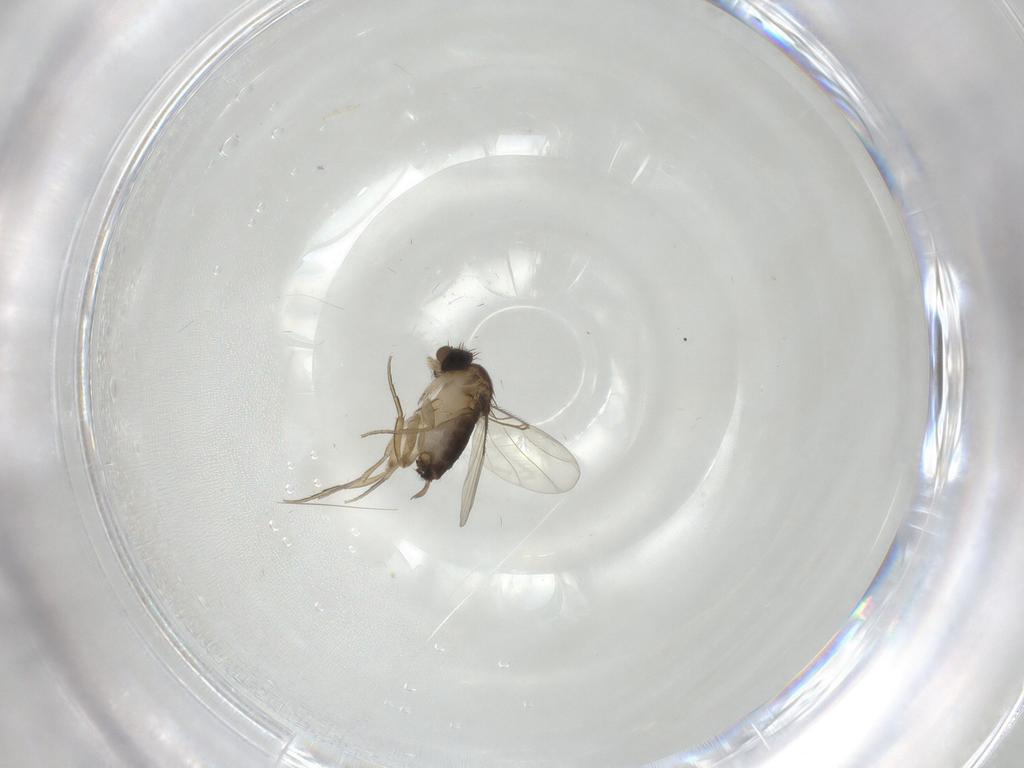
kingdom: Animalia
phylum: Arthropoda
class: Insecta
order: Diptera
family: Phoridae
